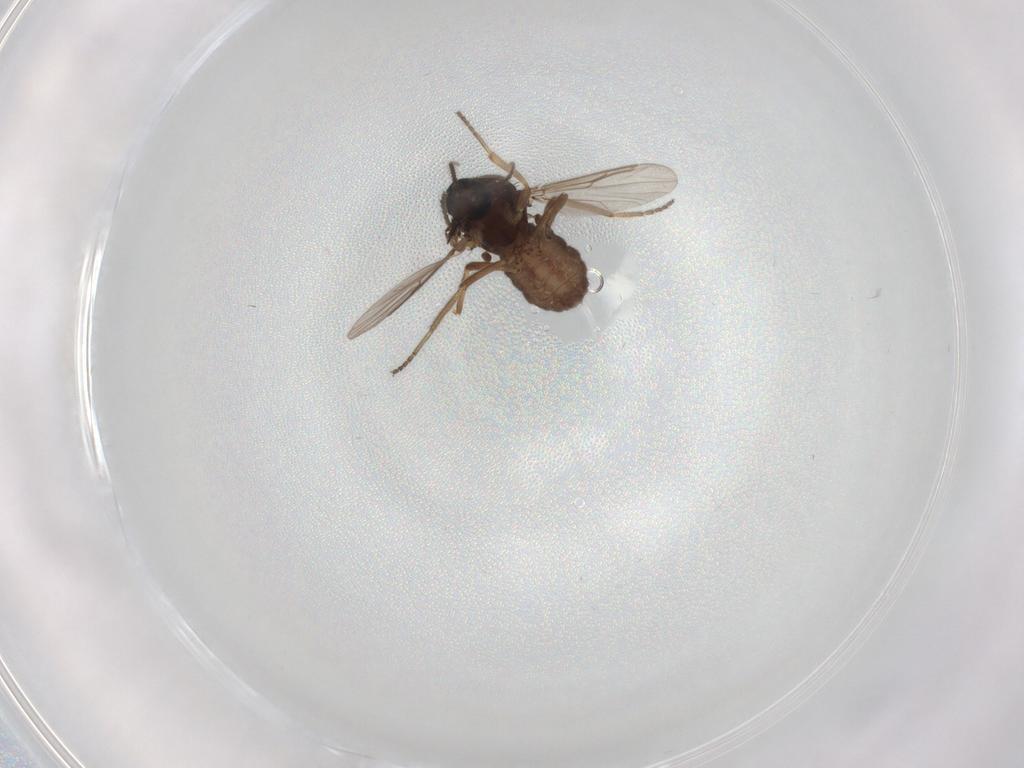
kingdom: Animalia
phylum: Arthropoda
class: Insecta
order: Diptera
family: Ceratopogonidae
